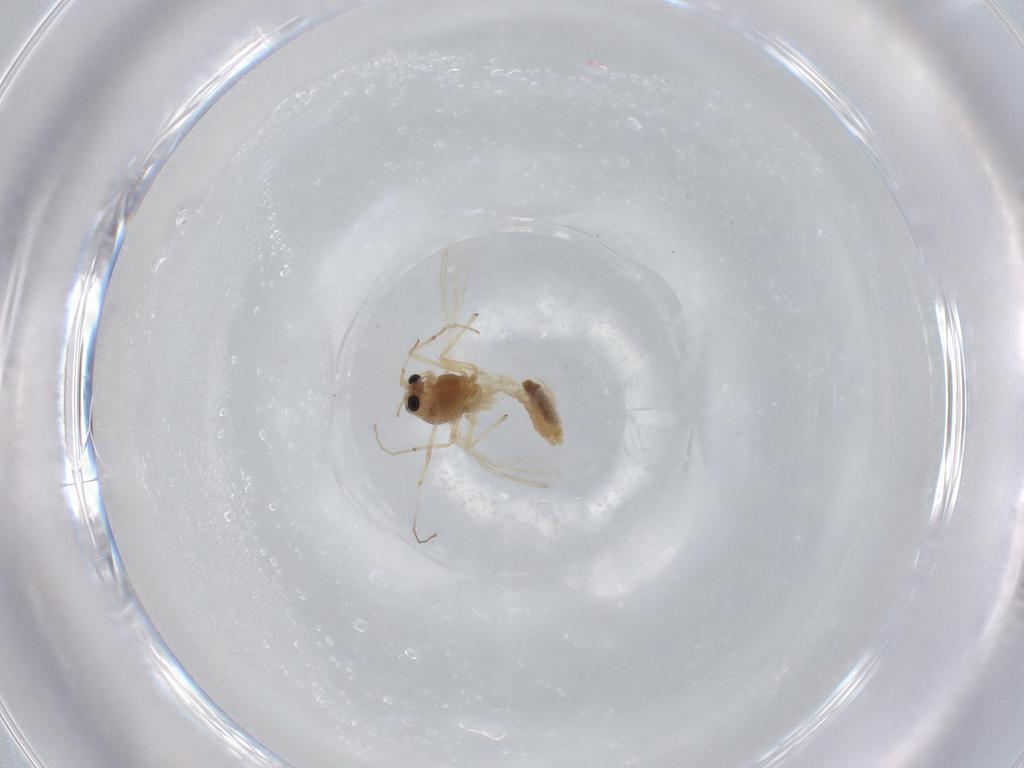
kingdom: Animalia
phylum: Arthropoda
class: Insecta
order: Diptera
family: Chironomidae
